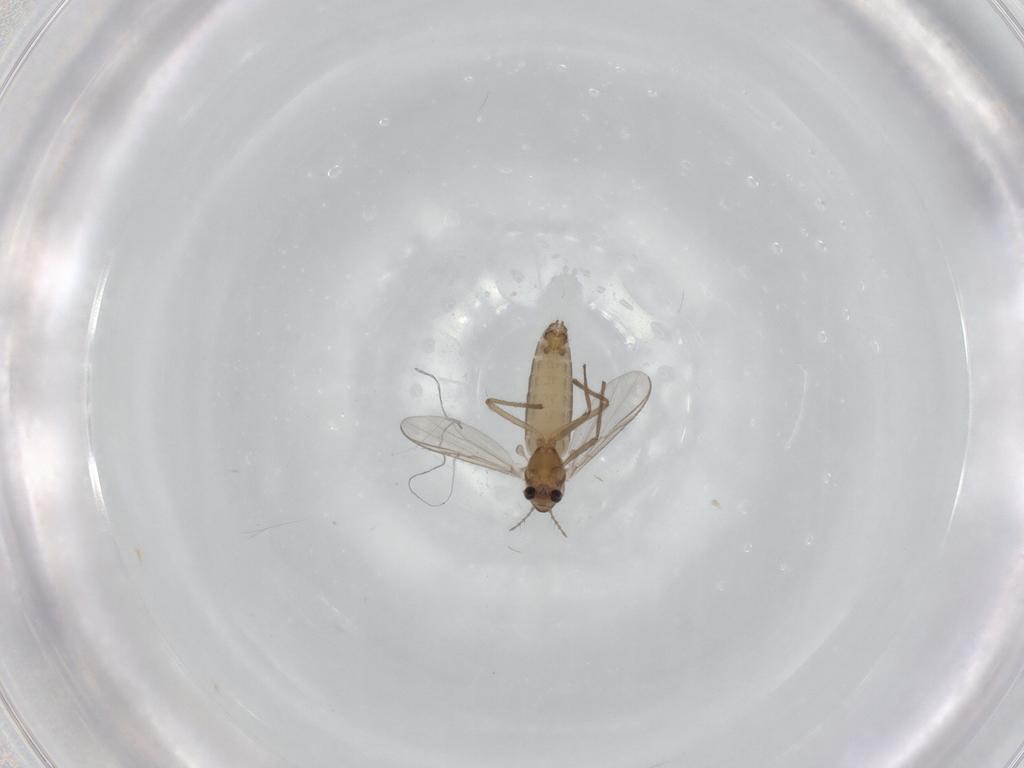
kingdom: Animalia
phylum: Arthropoda
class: Insecta
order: Diptera
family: Chironomidae
